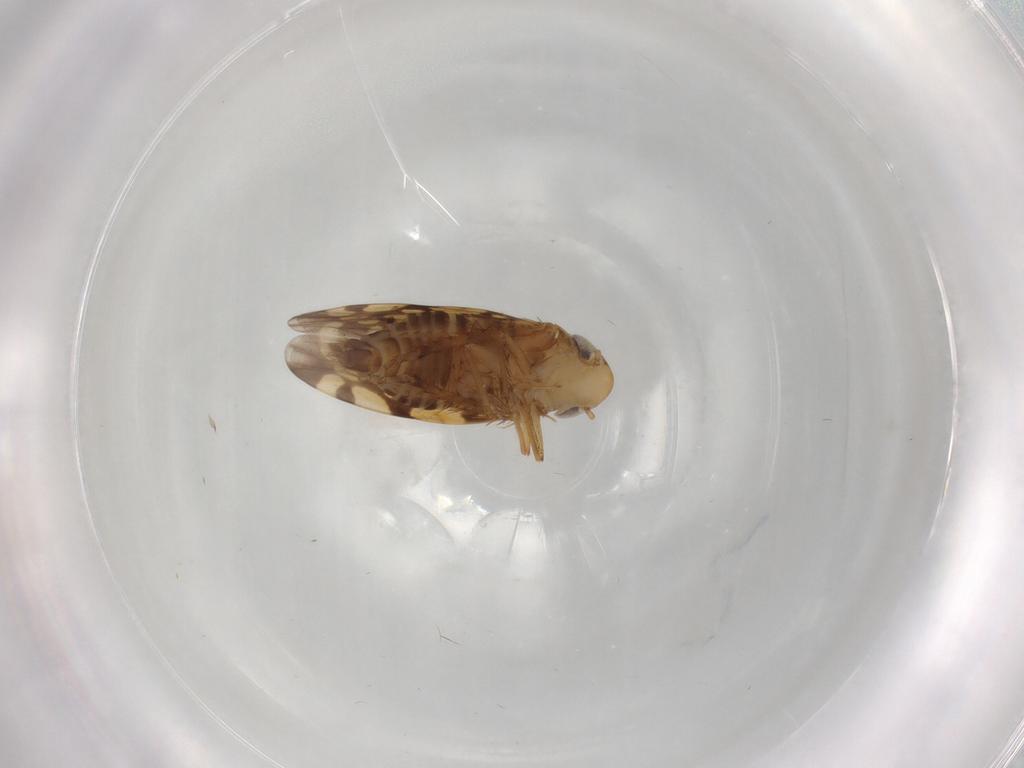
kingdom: Animalia
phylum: Arthropoda
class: Insecta
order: Hemiptera
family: Cicadellidae
